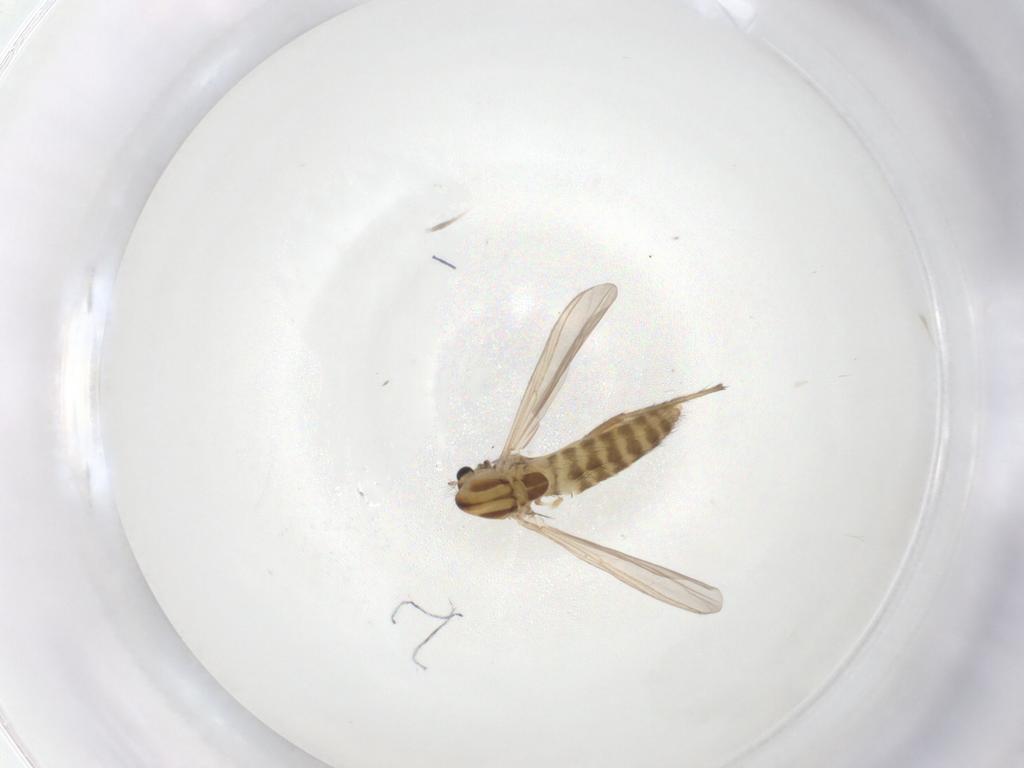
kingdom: Animalia
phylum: Arthropoda
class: Insecta
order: Diptera
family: Chironomidae
